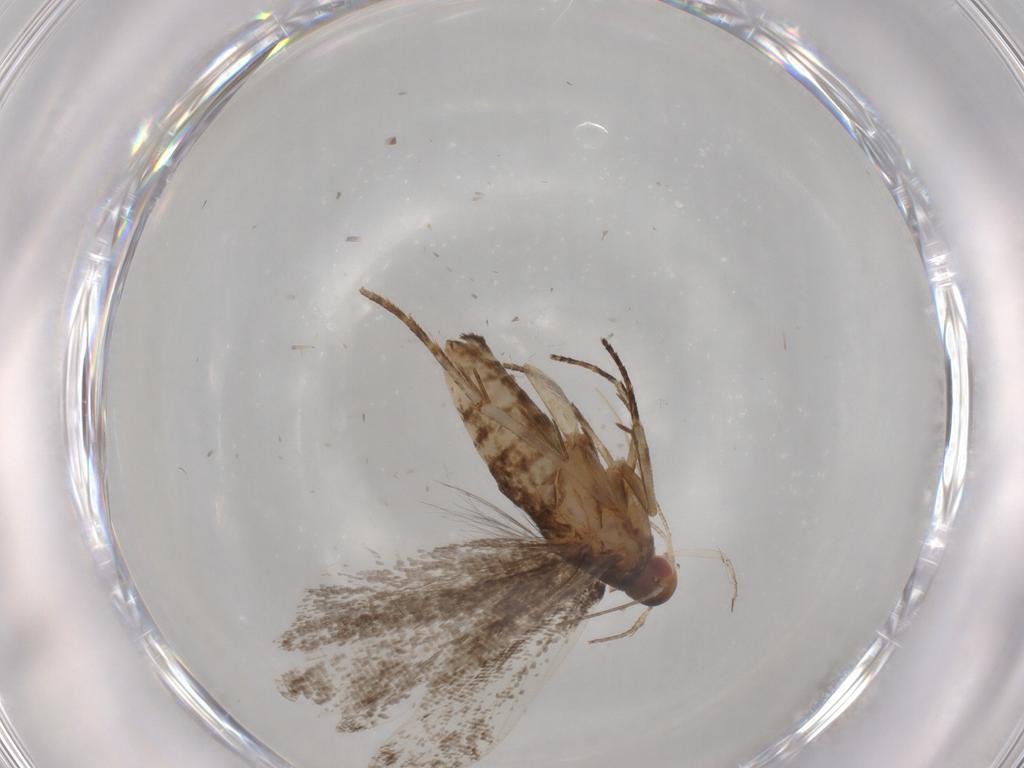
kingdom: Animalia
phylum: Arthropoda
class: Insecta
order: Lepidoptera
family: Gelechiidae
